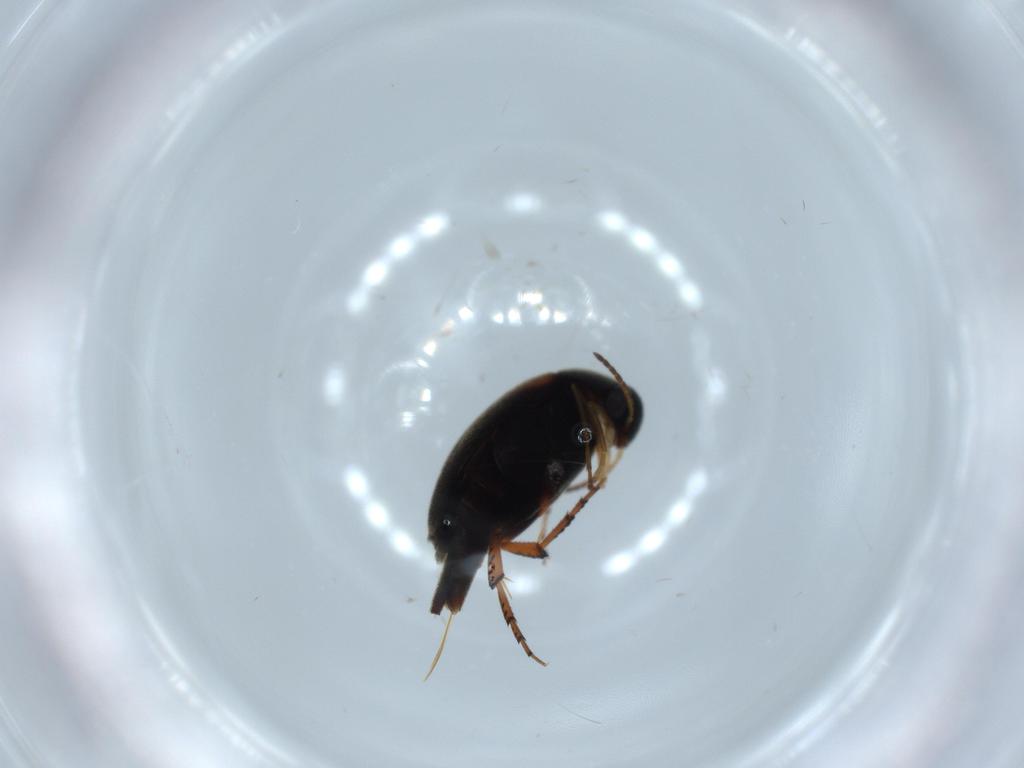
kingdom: Animalia
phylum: Arthropoda
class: Insecta
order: Coleoptera
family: Mordellidae
